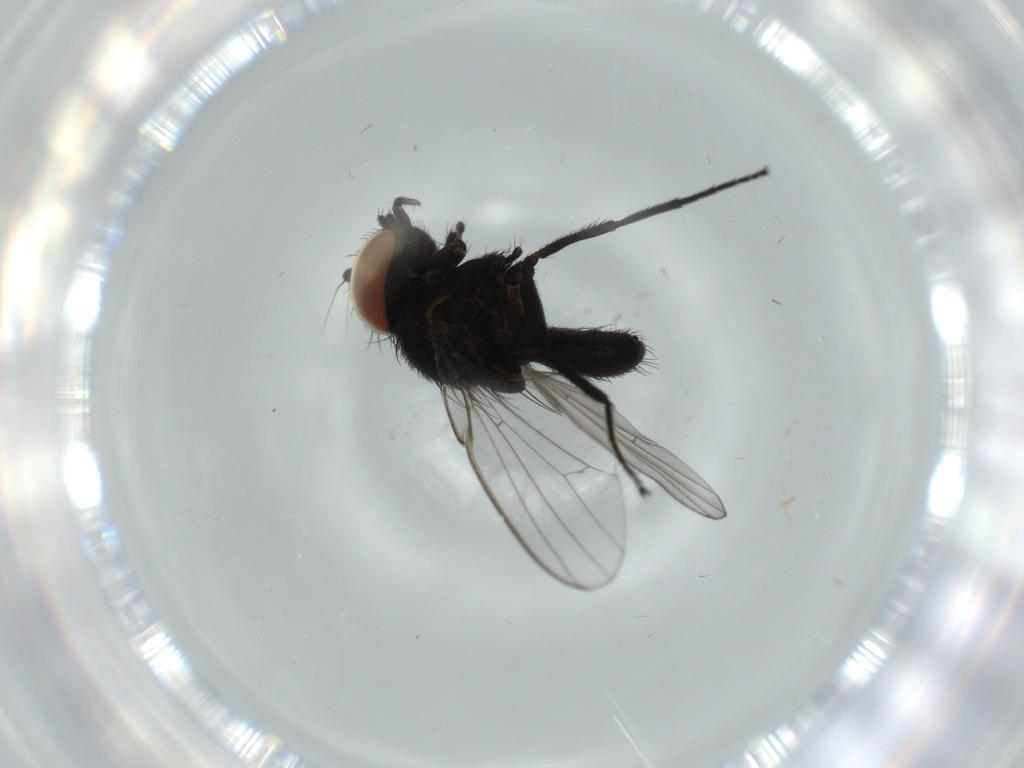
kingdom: Animalia
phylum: Arthropoda
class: Insecta
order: Diptera
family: Milichiidae
